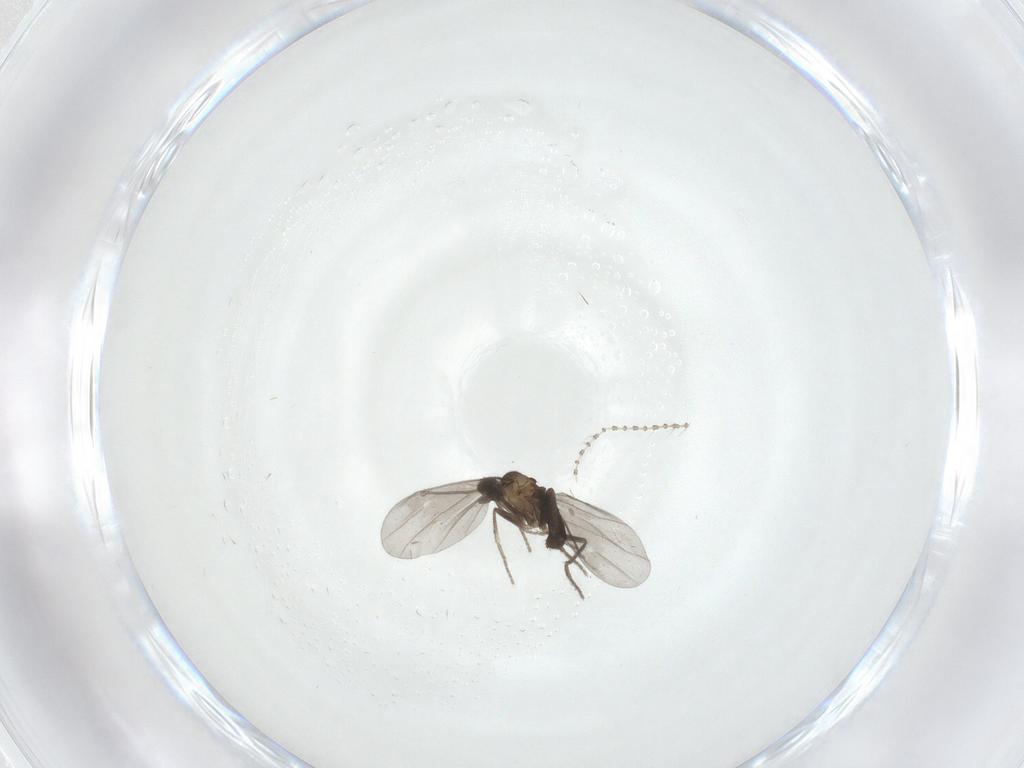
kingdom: Animalia
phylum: Arthropoda
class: Insecta
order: Diptera
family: Phoridae
